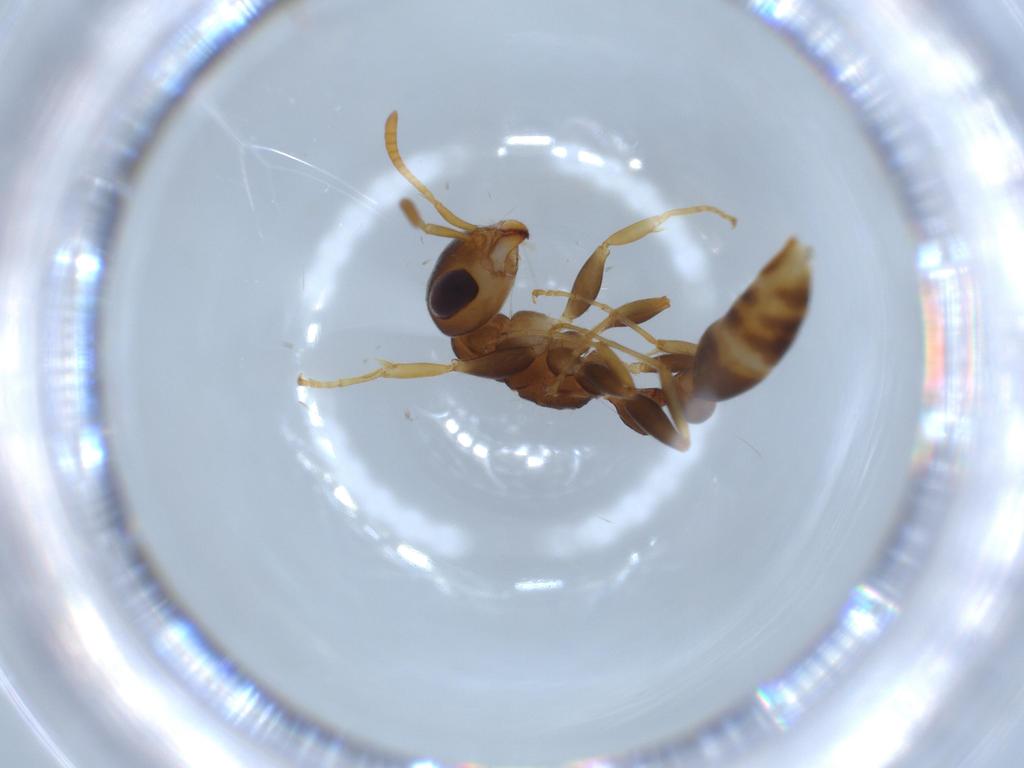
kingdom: Animalia
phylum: Arthropoda
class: Insecta
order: Hymenoptera
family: Formicidae
